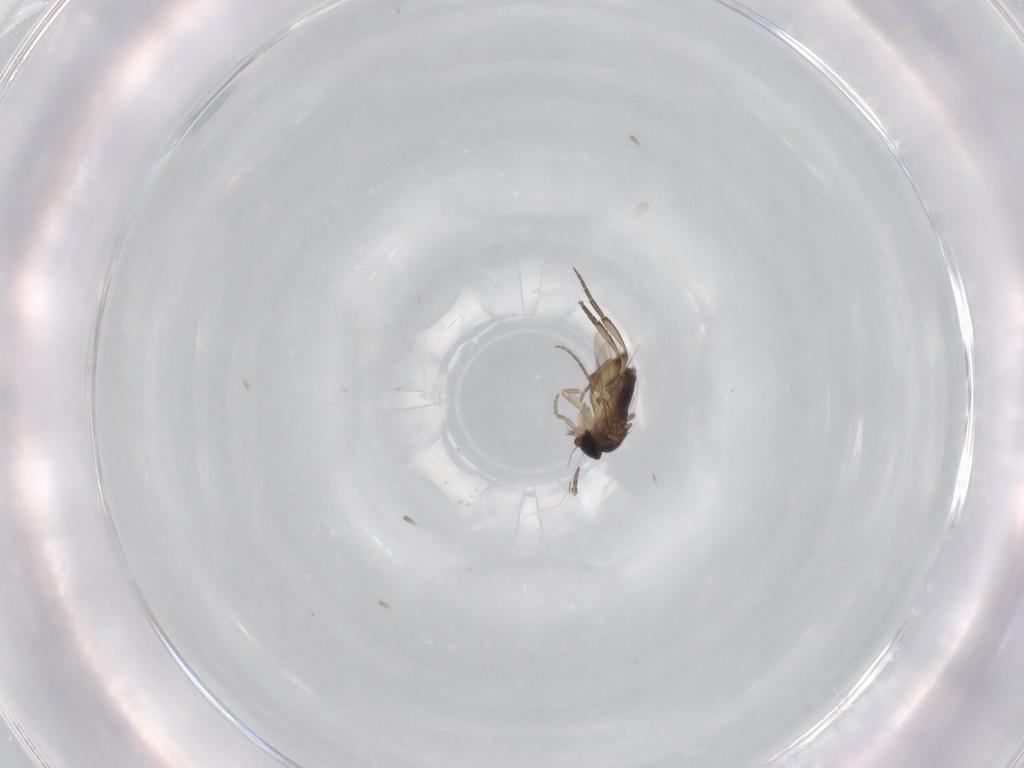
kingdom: Animalia
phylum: Arthropoda
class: Insecta
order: Diptera
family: Phoridae
